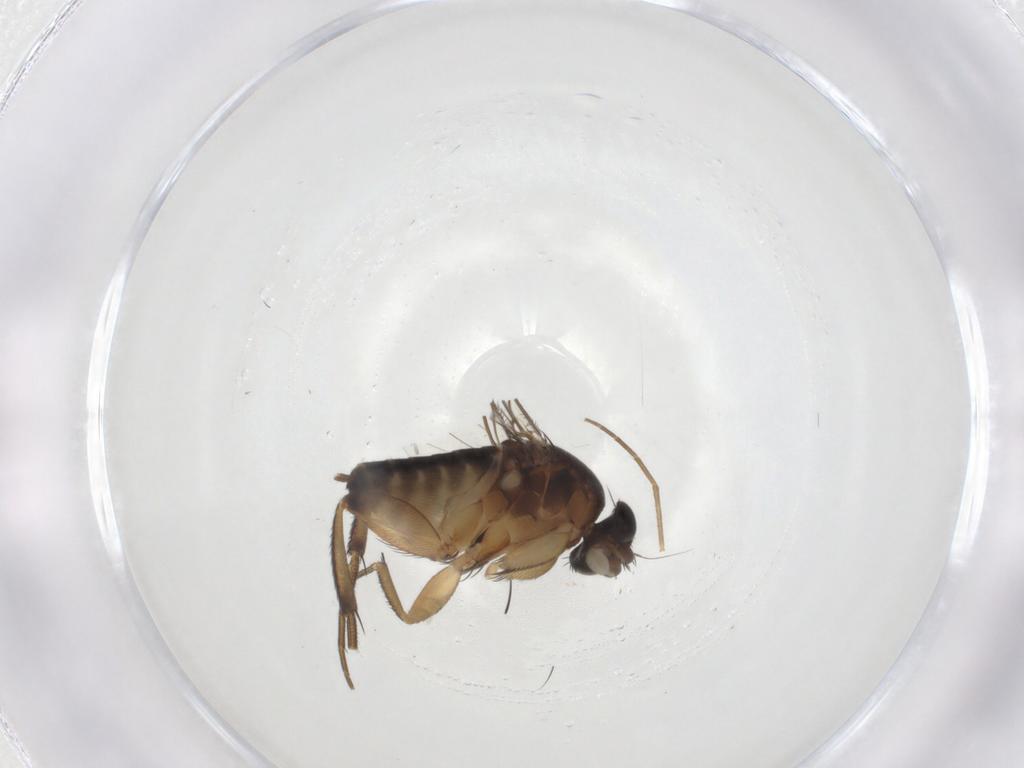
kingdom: Animalia
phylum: Arthropoda
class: Insecta
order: Diptera
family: Phoridae
